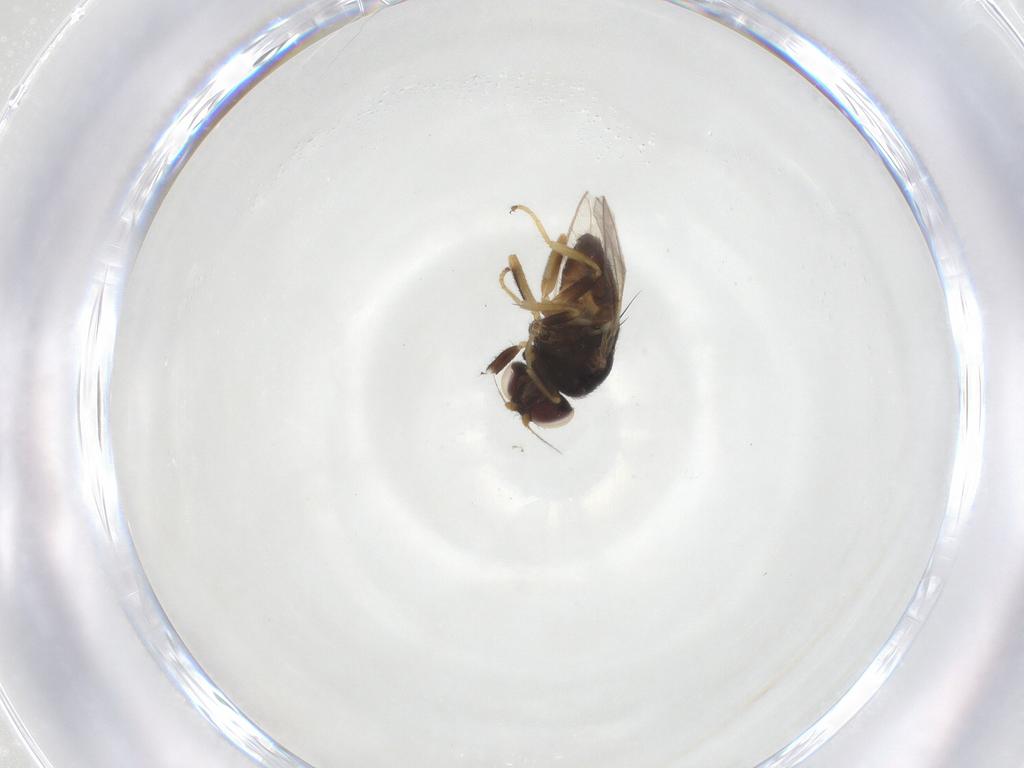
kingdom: Animalia
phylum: Arthropoda
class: Insecta
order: Diptera
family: Chloropidae
